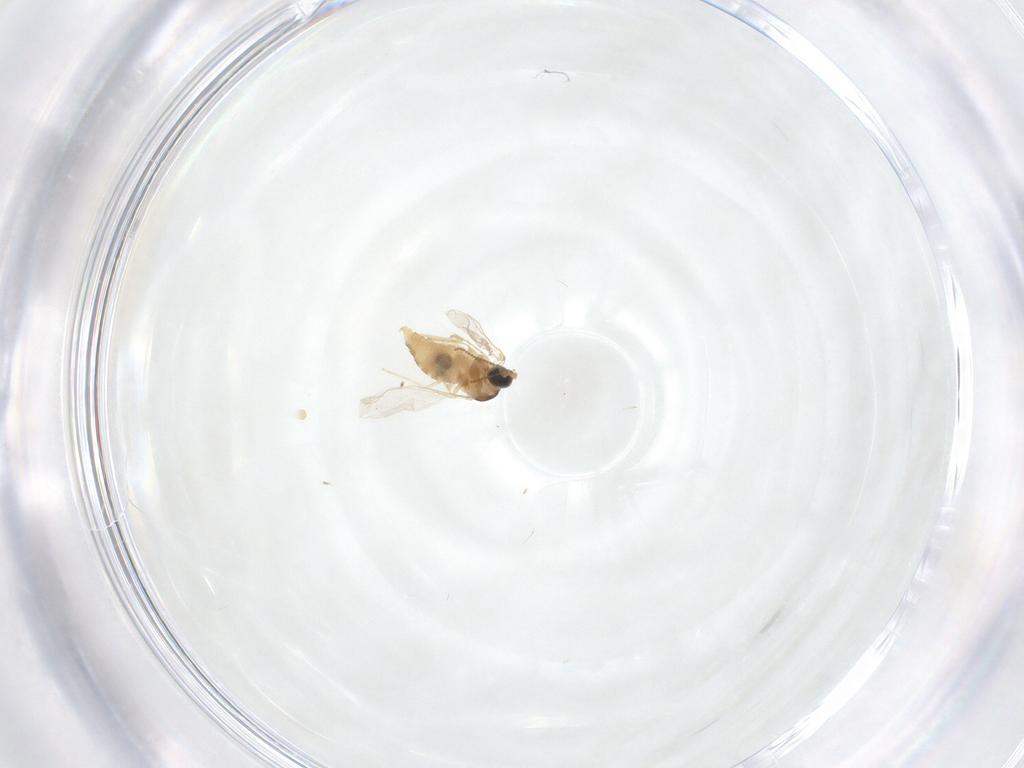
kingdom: Animalia
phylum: Arthropoda
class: Insecta
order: Diptera
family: Cecidomyiidae
